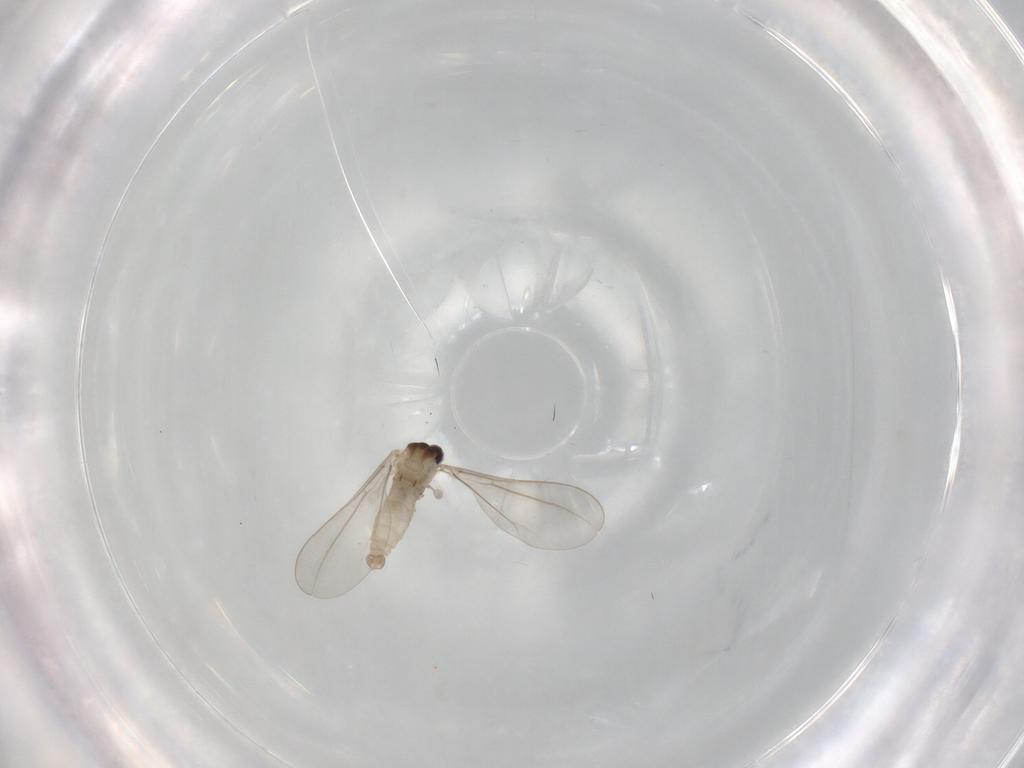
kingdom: Animalia
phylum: Arthropoda
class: Insecta
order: Diptera
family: Cecidomyiidae
